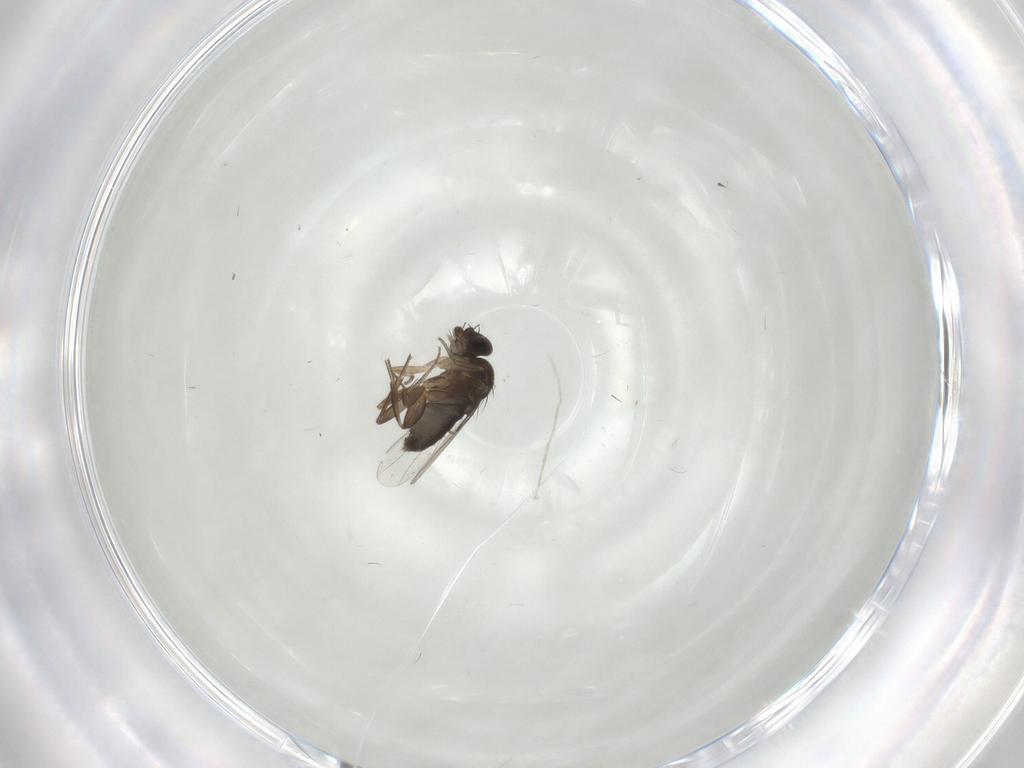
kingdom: Animalia
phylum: Arthropoda
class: Insecta
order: Diptera
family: Phoridae
